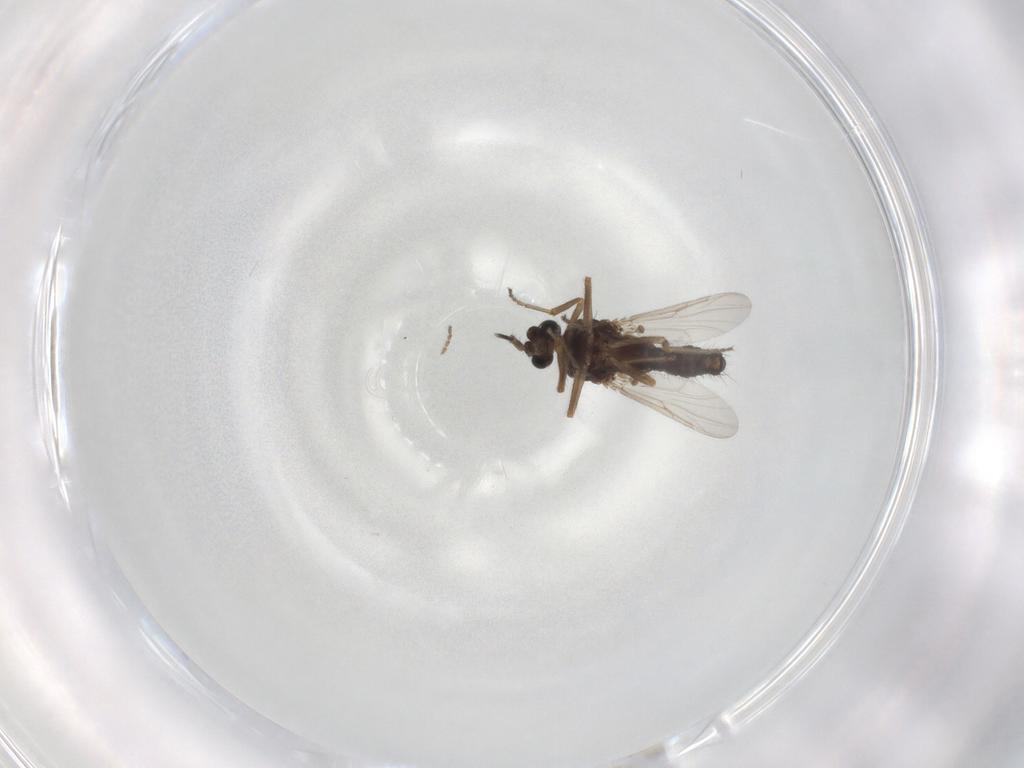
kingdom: Animalia
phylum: Arthropoda
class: Insecta
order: Diptera
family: Ceratopogonidae
